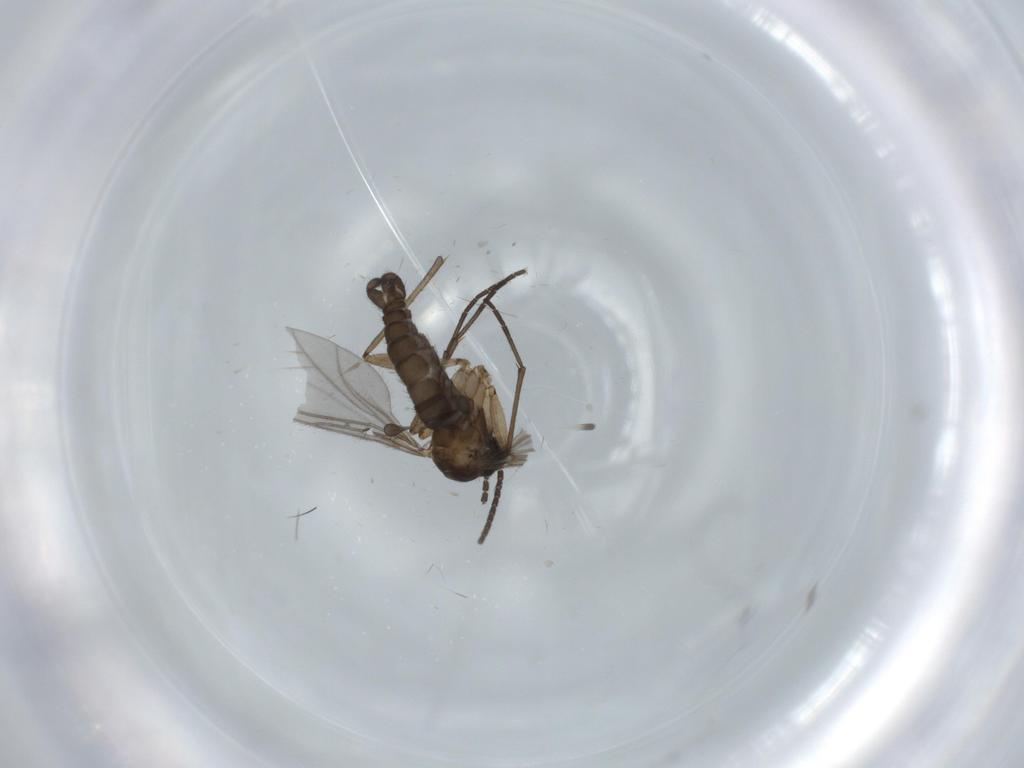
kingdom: Animalia
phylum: Arthropoda
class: Insecta
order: Diptera
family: Sciaridae
